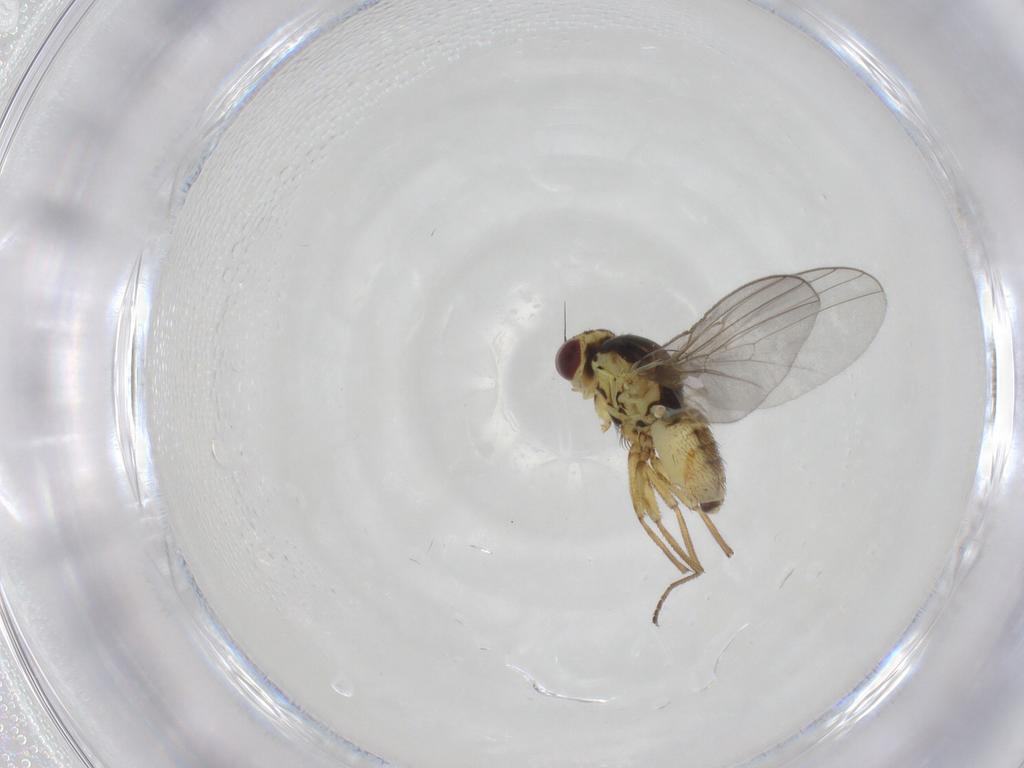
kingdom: Animalia
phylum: Arthropoda
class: Insecta
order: Diptera
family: Agromyzidae
